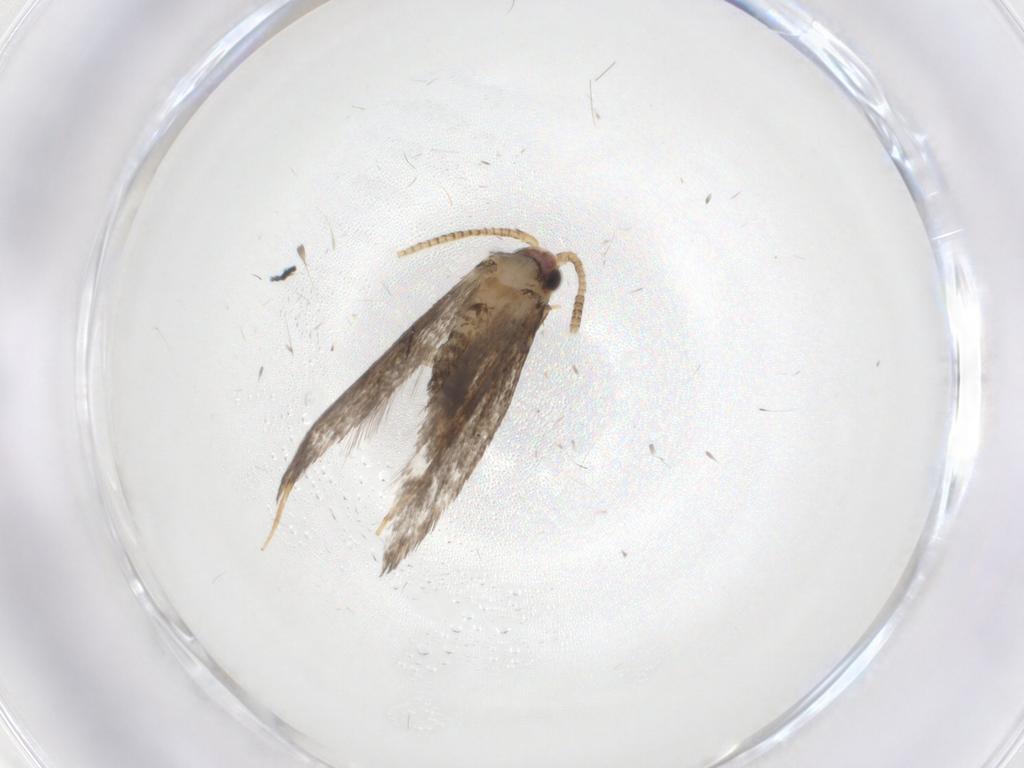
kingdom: Animalia
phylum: Arthropoda
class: Insecta
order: Lepidoptera
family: Tineidae
